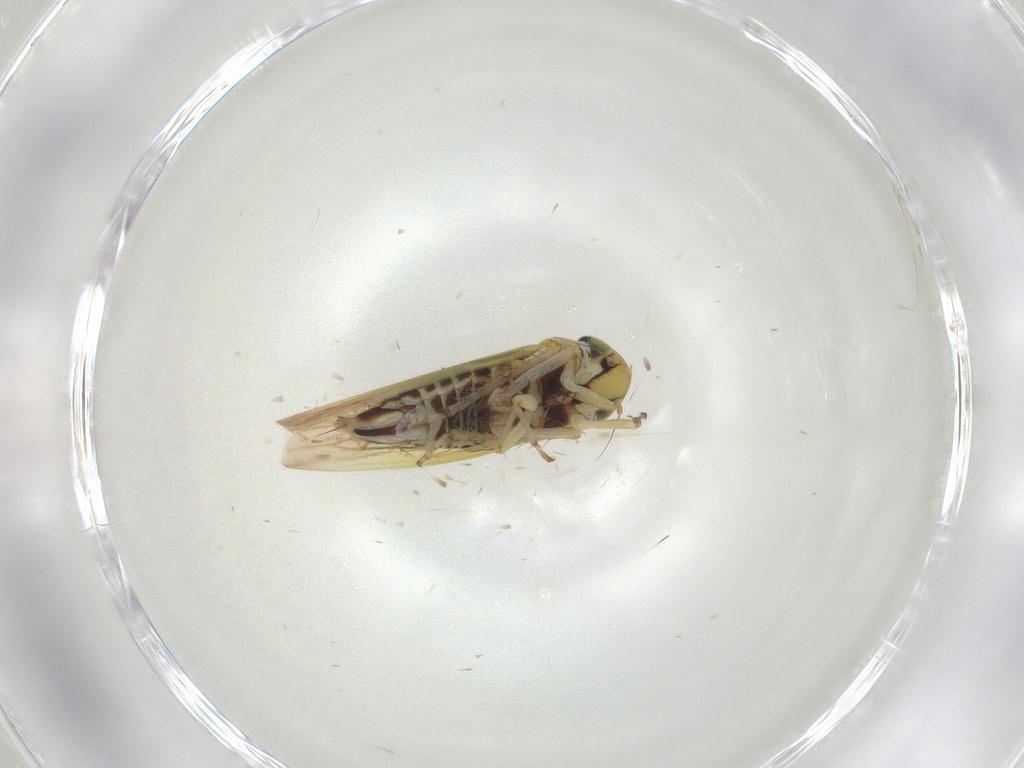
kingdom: Animalia
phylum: Arthropoda
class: Insecta
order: Hemiptera
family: Cicadellidae
